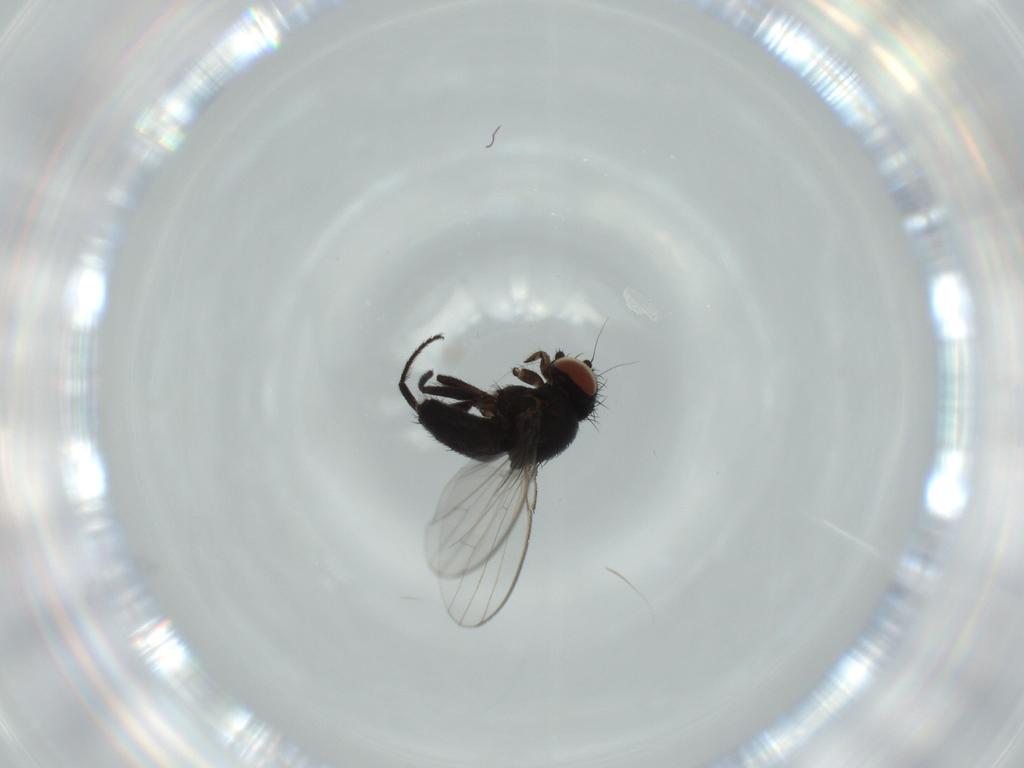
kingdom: Animalia
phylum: Arthropoda
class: Insecta
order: Diptera
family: Milichiidae
